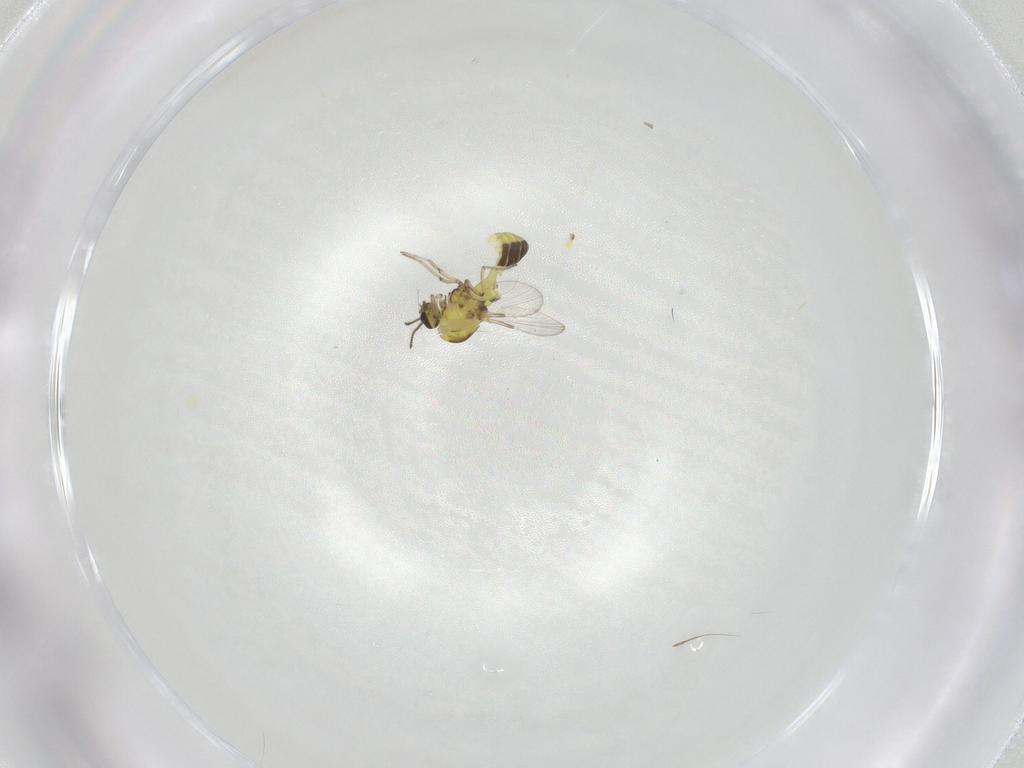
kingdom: Animalia
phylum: Arthropoda
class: Insecta
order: Diptera
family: Ceratopogonidae
